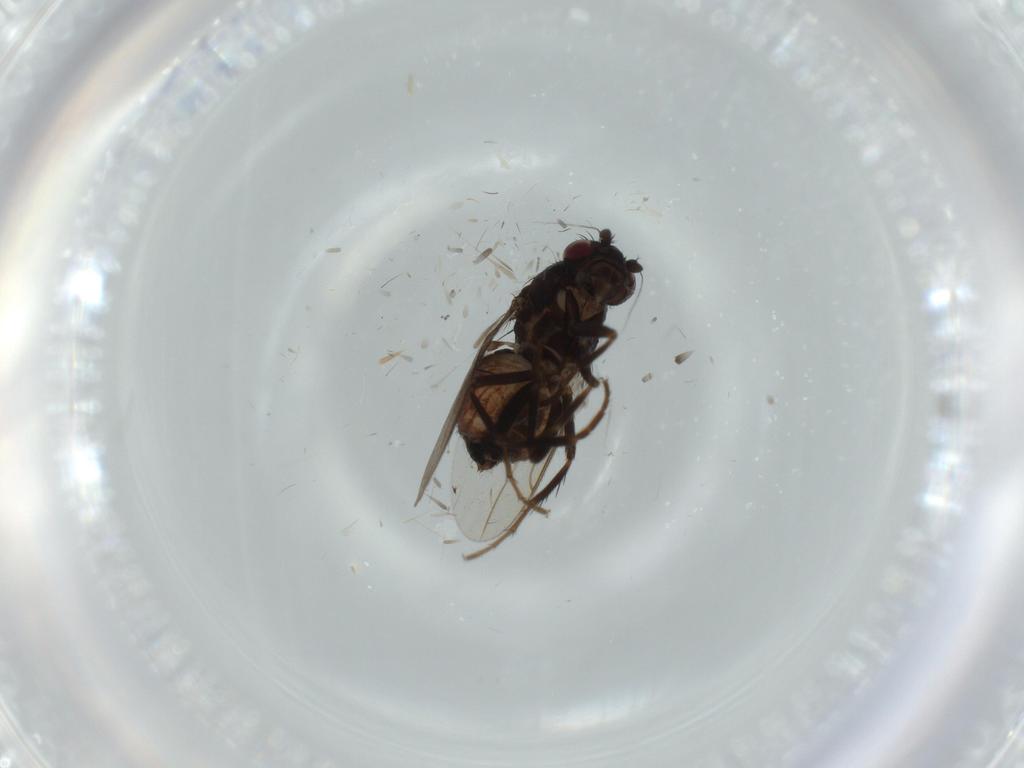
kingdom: Animalia
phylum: Arthropoda
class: Insecta
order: Diptera
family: Sphaeroceridae
